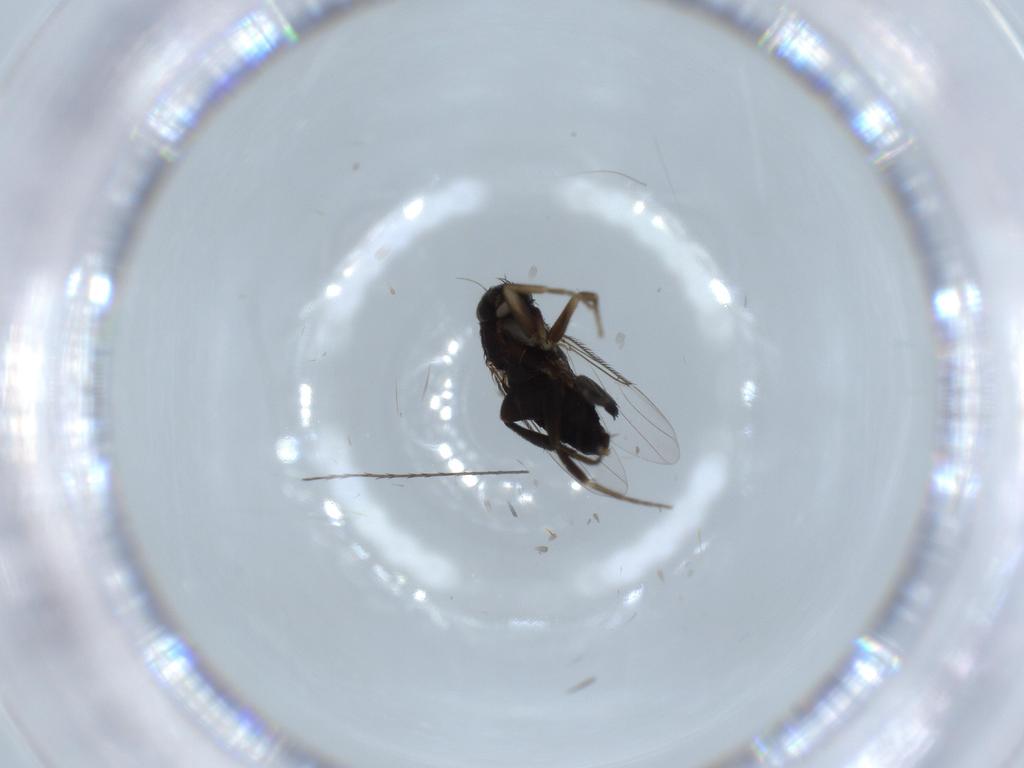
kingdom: Animalia
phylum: Arthropoda
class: Insecta
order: Diptera
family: Phoridae
